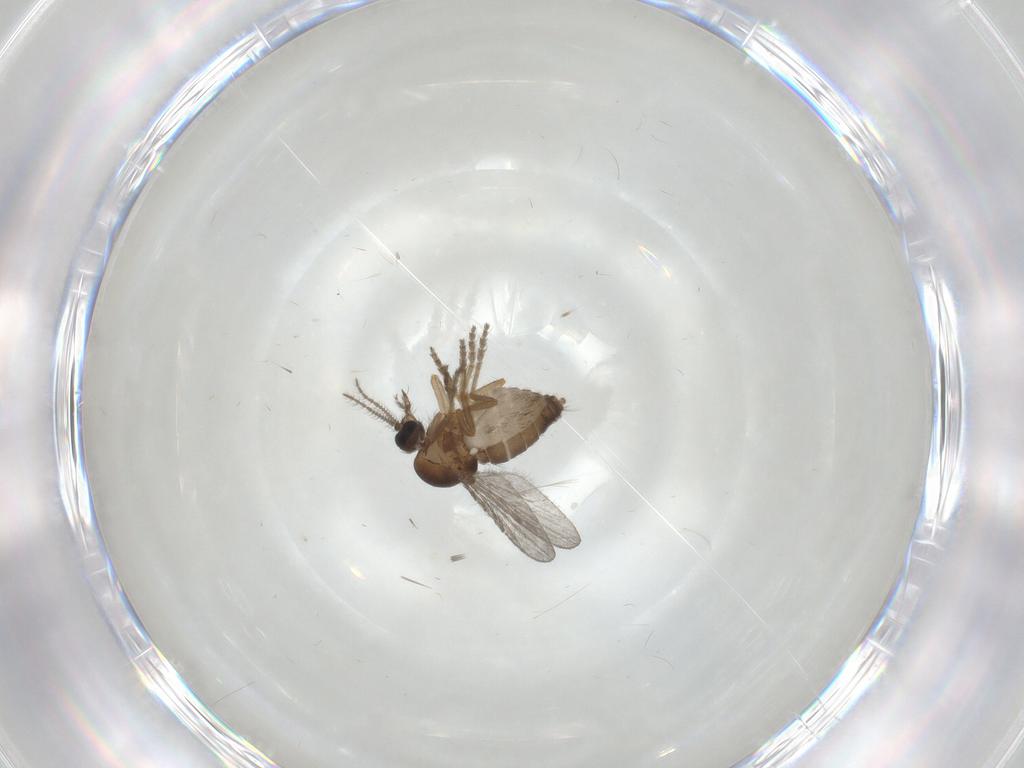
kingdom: Animalia
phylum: Arthropoda
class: Insecta
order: Diptera
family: Ceratopogonidae
